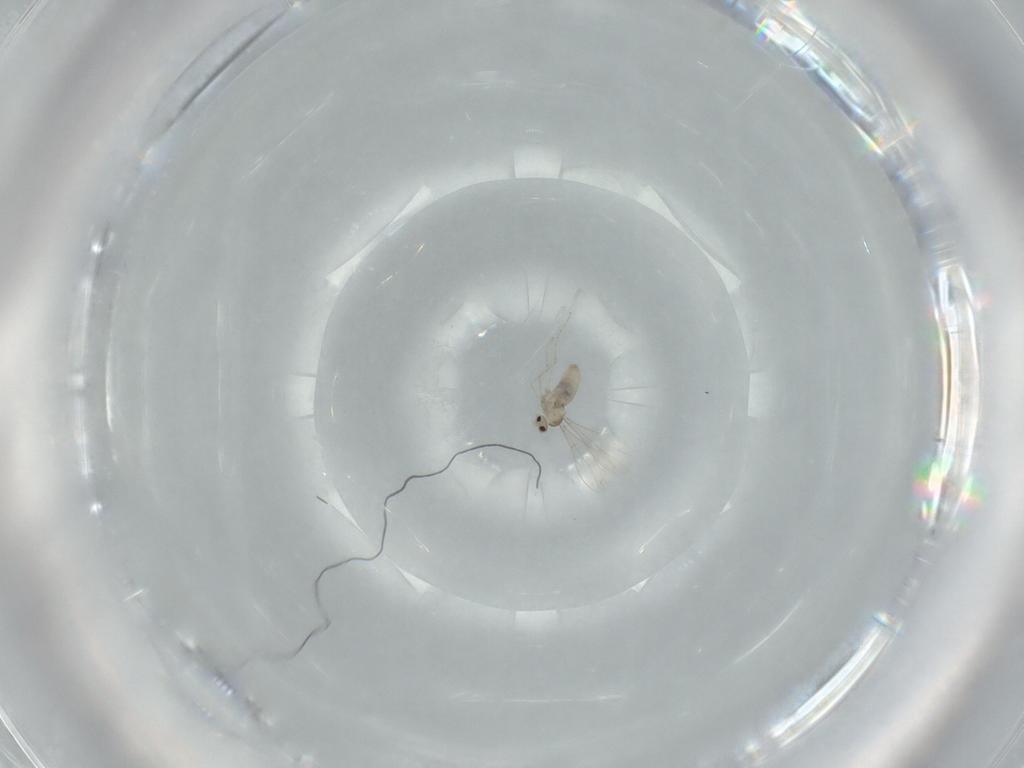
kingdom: Animalia
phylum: Arthropoda
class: Insecta
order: Diptera
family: Cecidomyiidae
